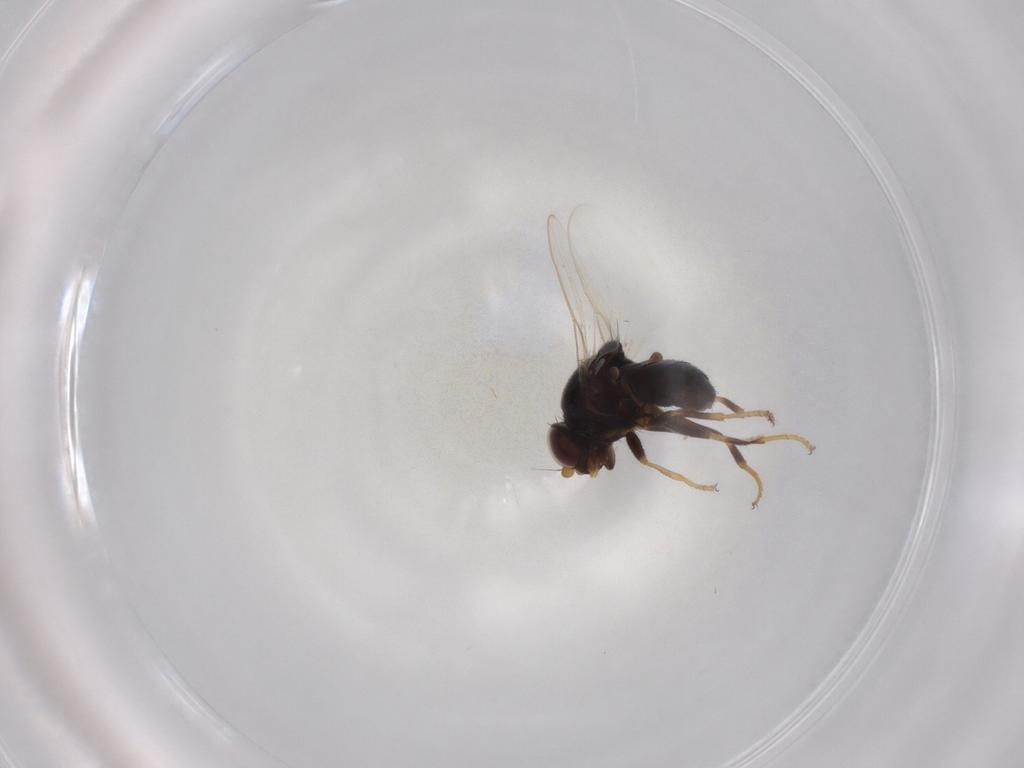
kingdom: Animalia
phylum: Arthropoda
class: Insecta
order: Diptera
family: Chloropidae
